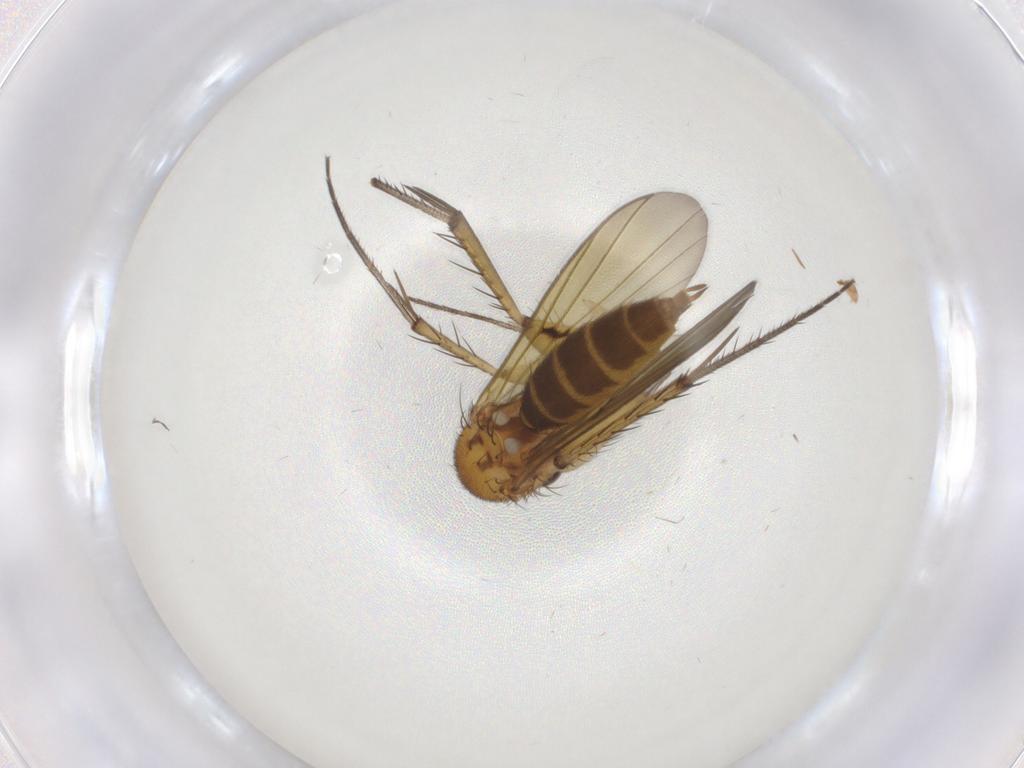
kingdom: Animalia
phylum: Arthropoda
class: Insecta
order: Diptera
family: Mycetophilidae
